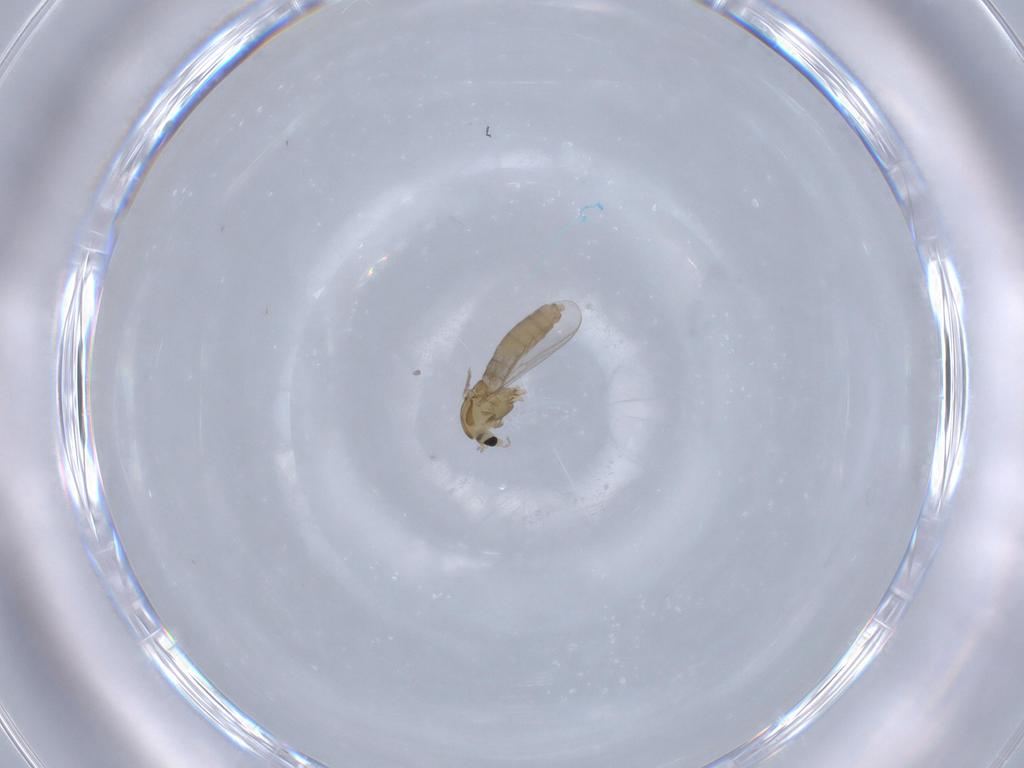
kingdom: Animalia
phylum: Arthropoda
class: Insecta
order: Diptera
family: Chironomidae
